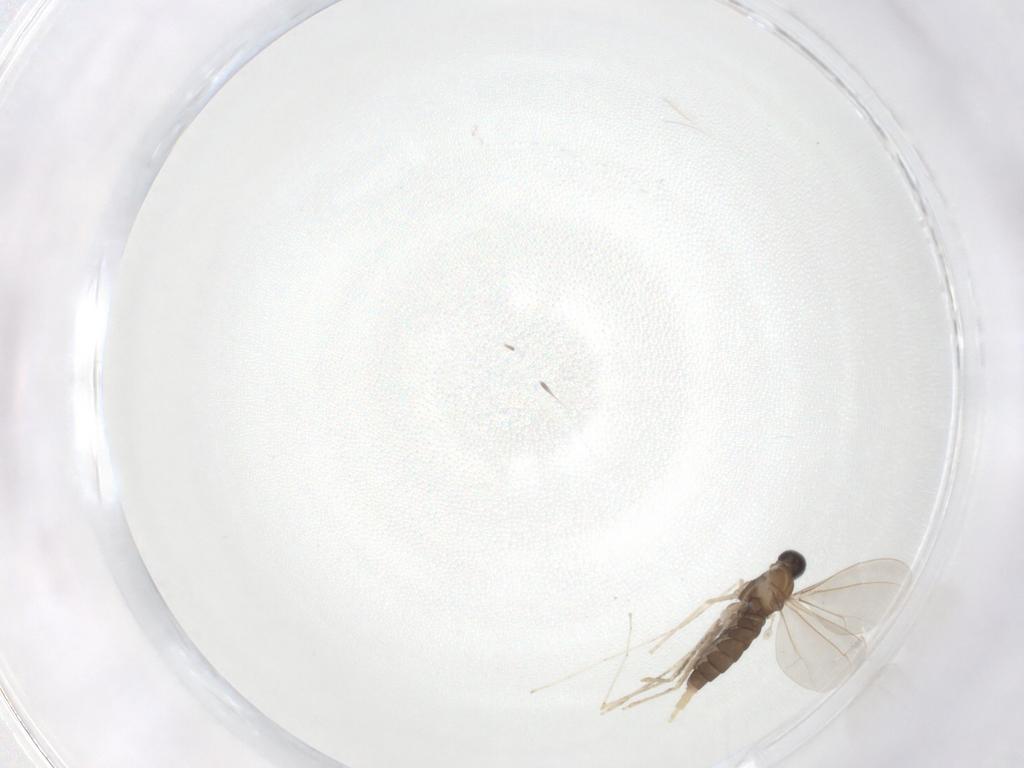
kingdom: Animalia
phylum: Arthropoda
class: Insecta
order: Diptera
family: Cecidomyiidae
